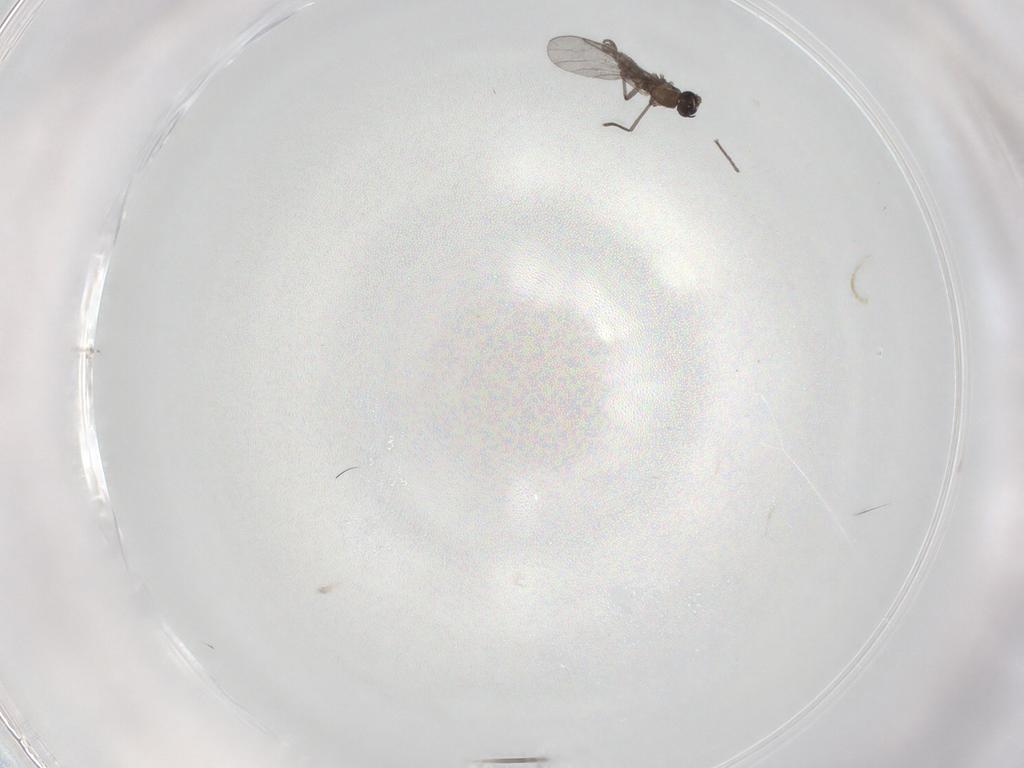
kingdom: Animalia
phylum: Arthropoda
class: Insecta
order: Diptera
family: Sciaridae
